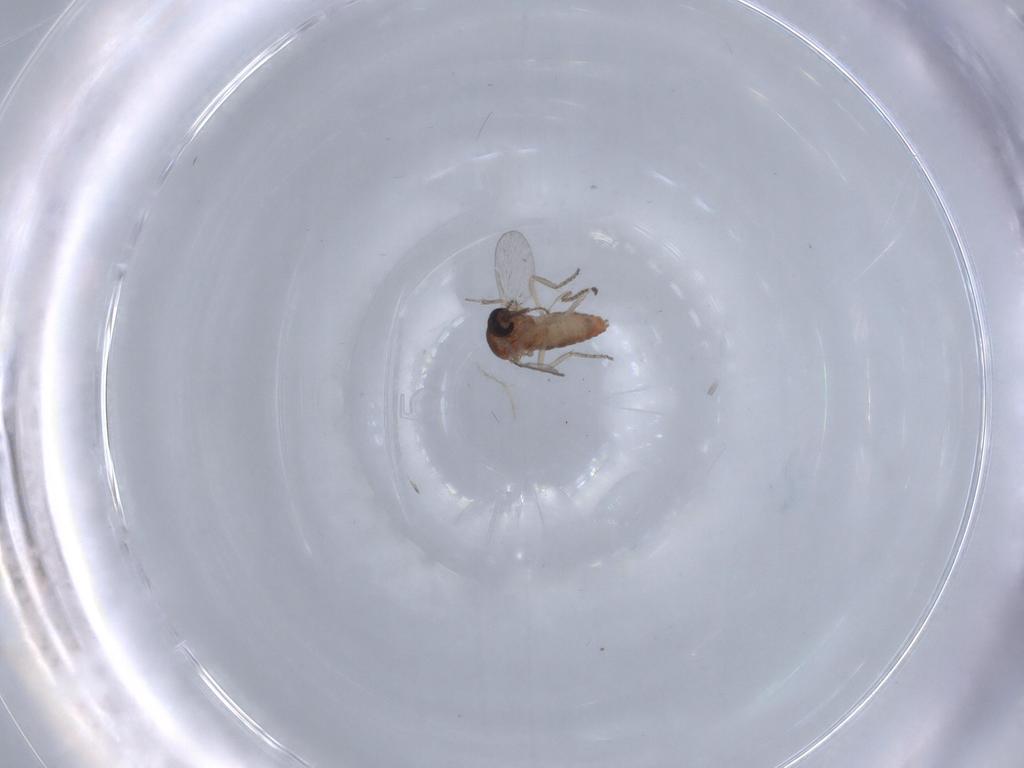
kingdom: Animalia
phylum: Arthropoda
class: Insecta
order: Diptera
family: Ceratopogonidae
